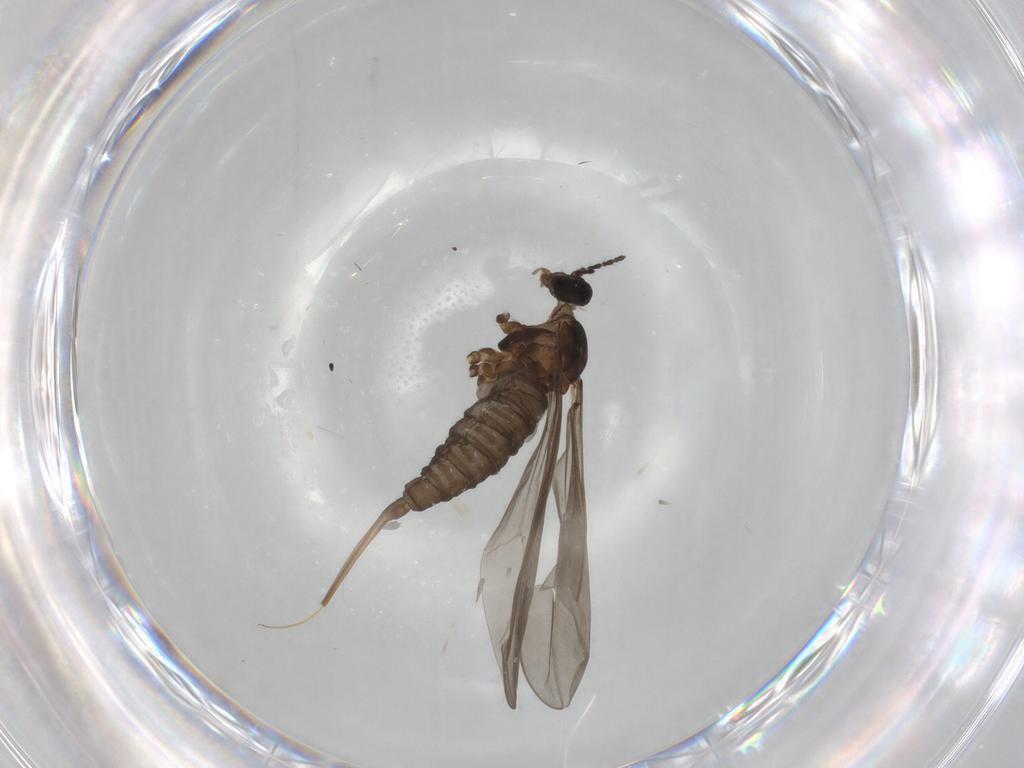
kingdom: Animalia
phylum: Arthropoda
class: Insecta
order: Diptera
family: Cecidomyiidae
